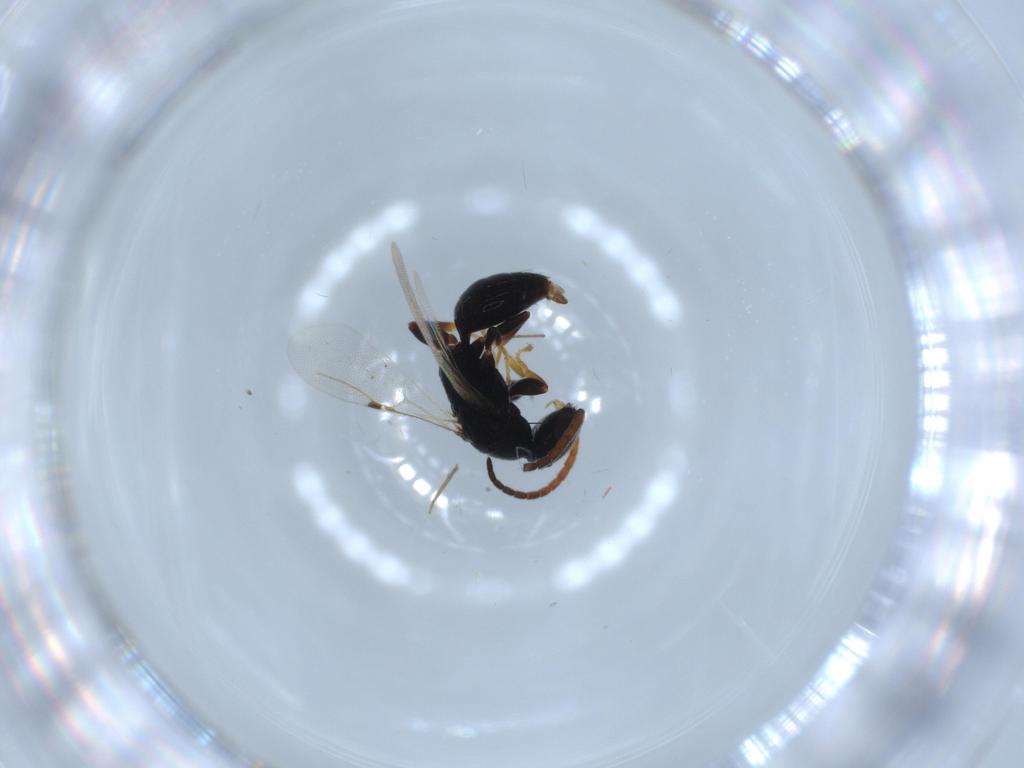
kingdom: Animalia
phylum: Arthropoda
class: Insecta
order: Hymenoptera
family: Bethylidae
